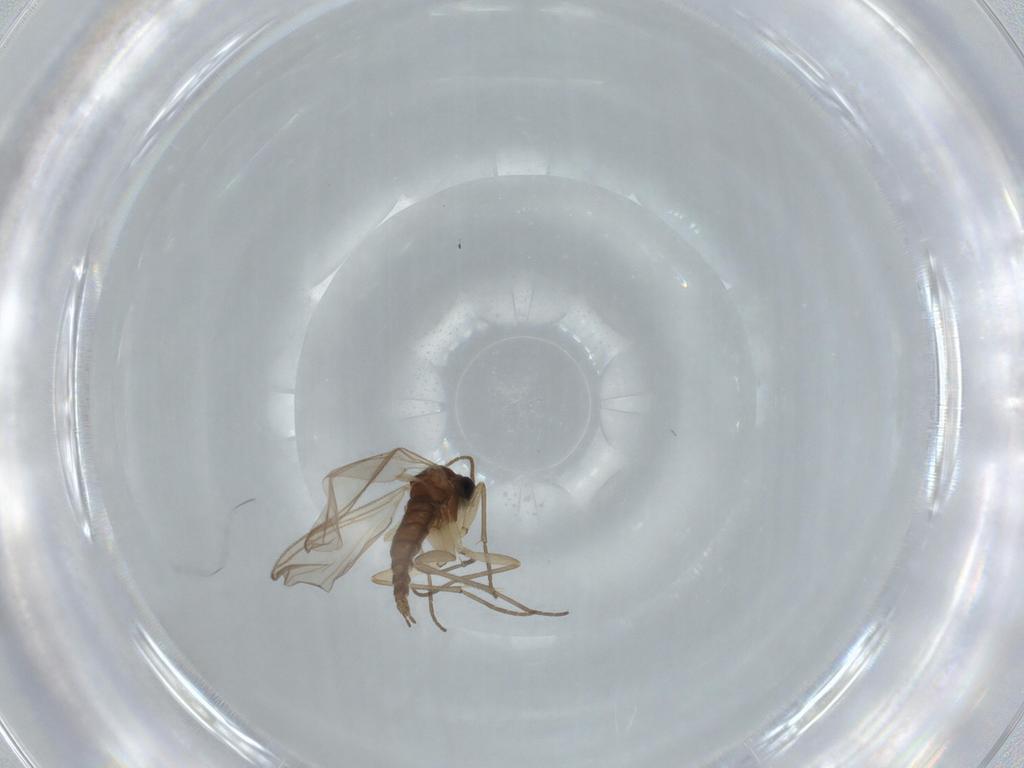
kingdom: Animalia
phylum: Arthropoda
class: Insecta
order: Diptera
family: Sciaridae
